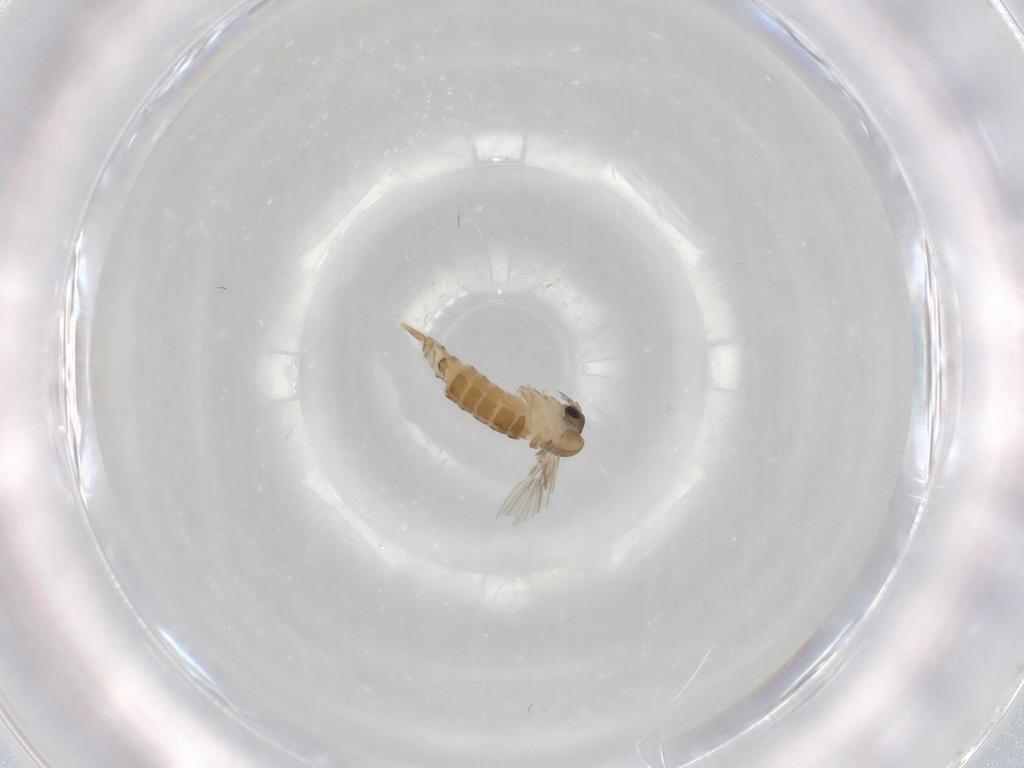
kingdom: Animalia
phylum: Arthropoda
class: Insecta
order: Diptera
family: Psychodidae
